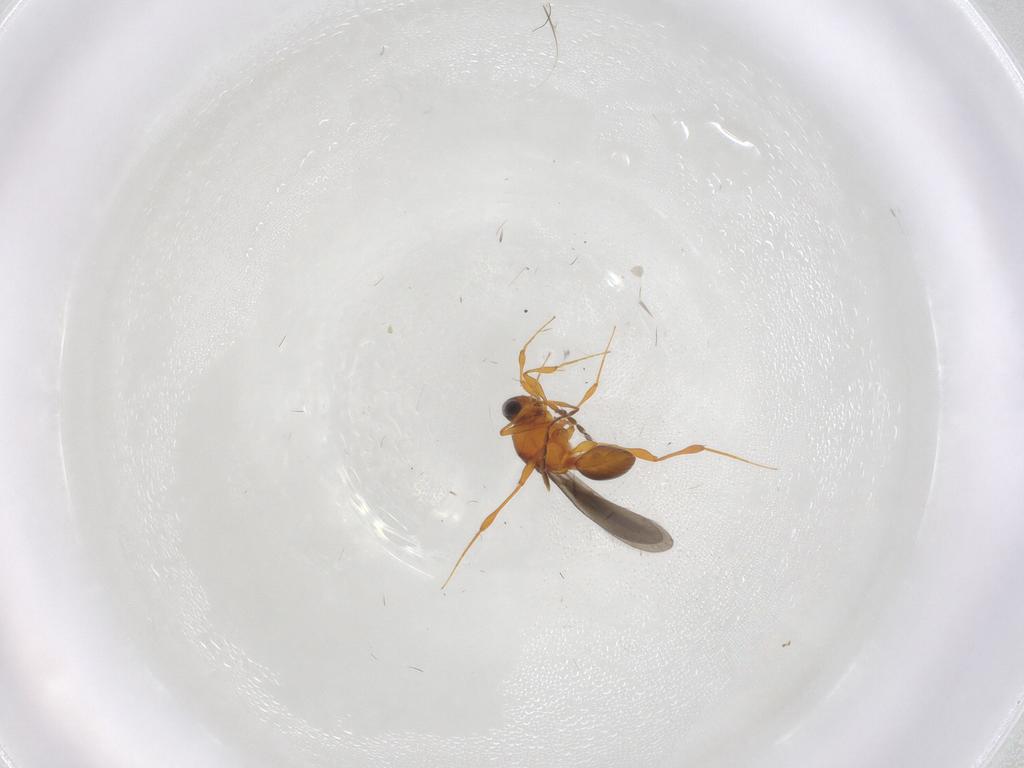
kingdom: Animalia
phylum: Arthropoda
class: Insecta
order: Hymenoptera
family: Platygastridae
